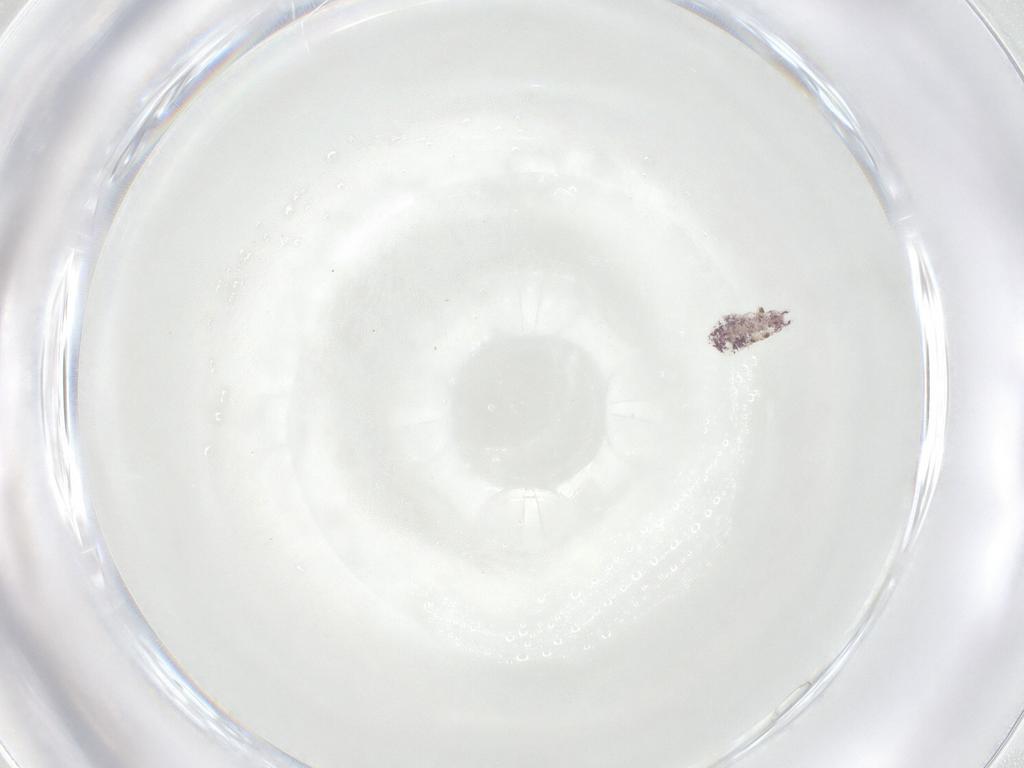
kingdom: Animalia
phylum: Arthropoda
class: Collembola
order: Poduromorpha
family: Brachystomellidae
